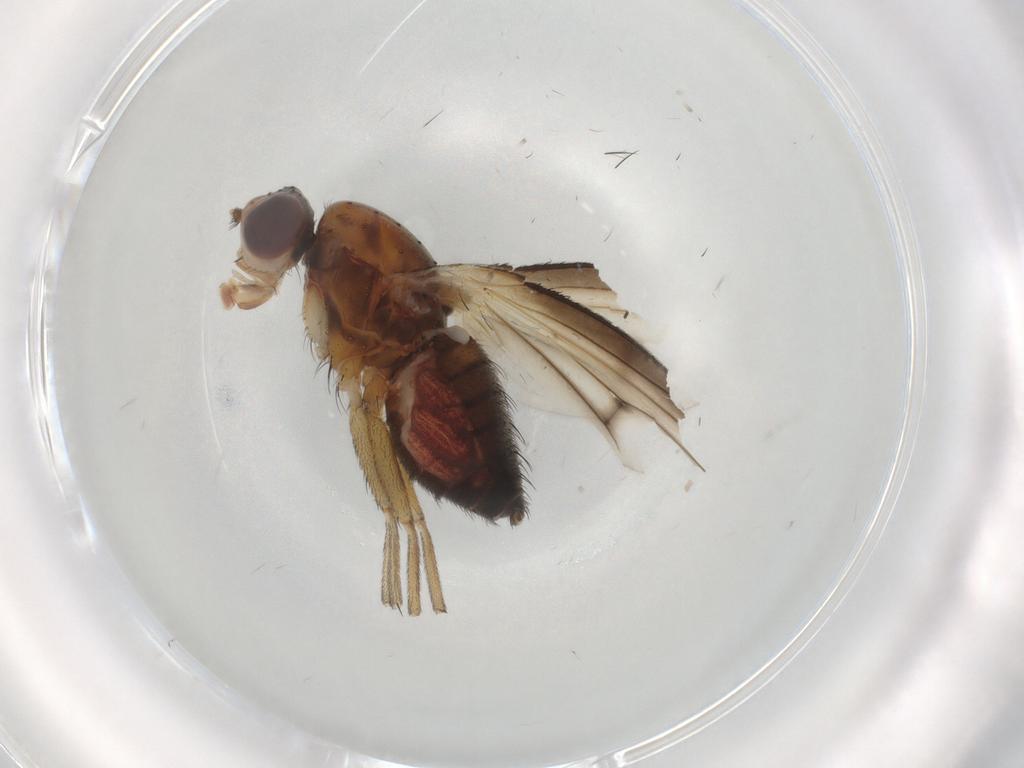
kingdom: Animalia
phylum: Arthropoda
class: Insecta
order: Diptera
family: Heleomyzidae
